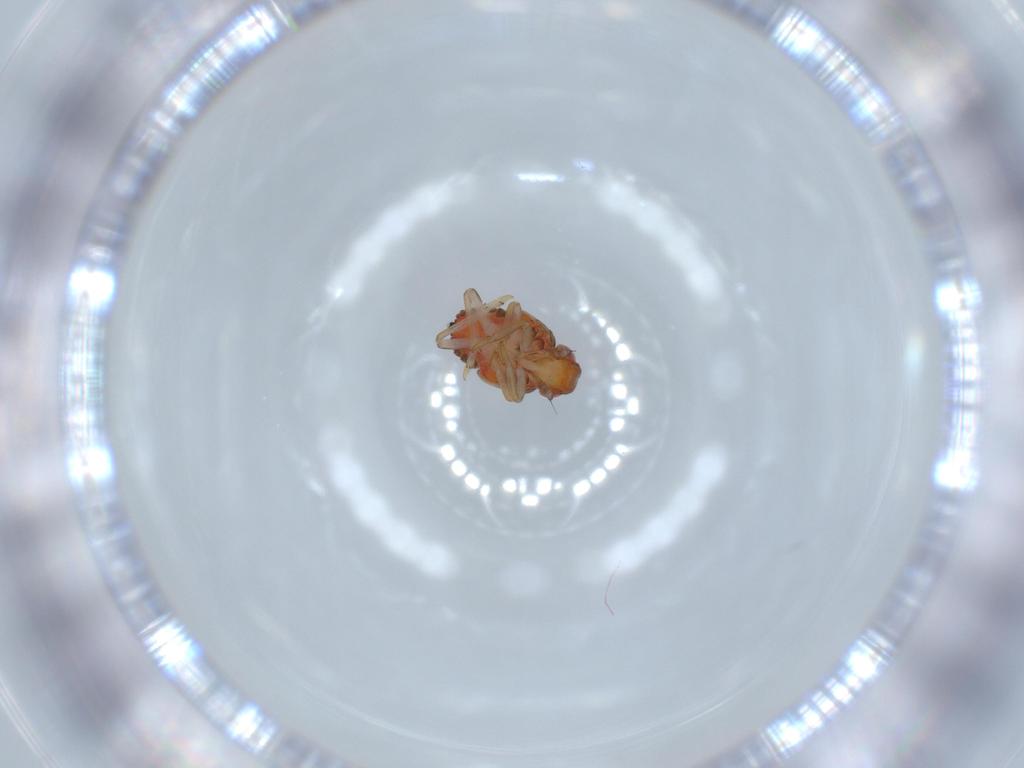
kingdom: Animalia
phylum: Arthropoda
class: Insecta
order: Hemiptera
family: Issidae
